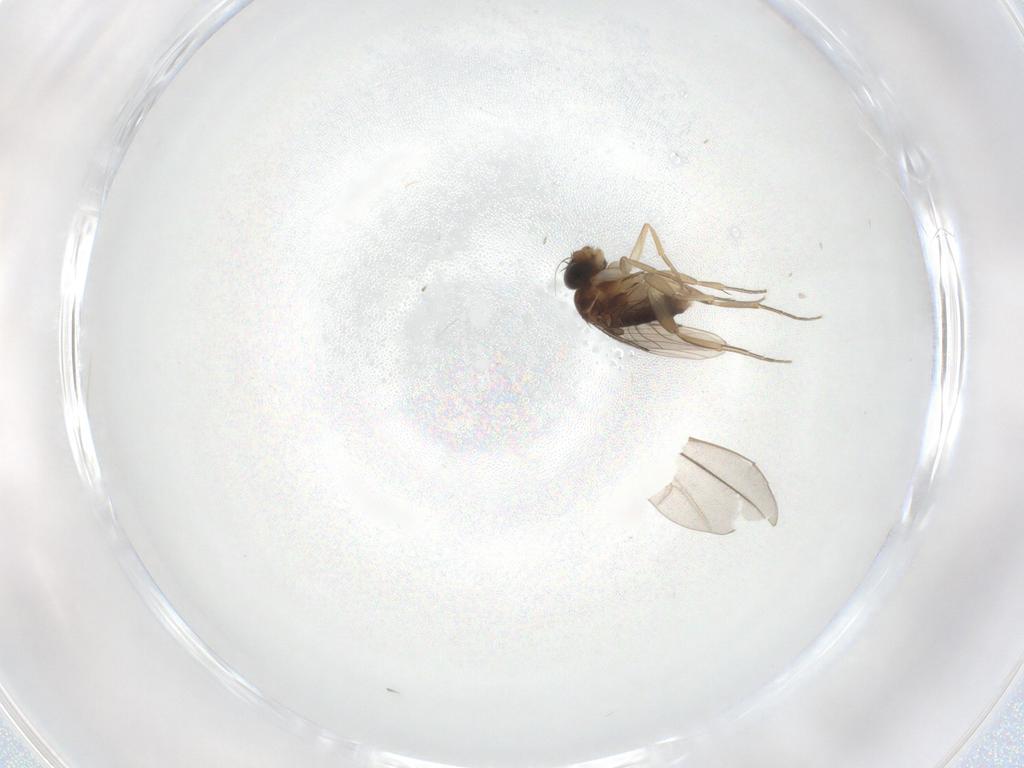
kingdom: Animalia
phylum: Arthropoda
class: Insecta
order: Diptera
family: Phoridae
